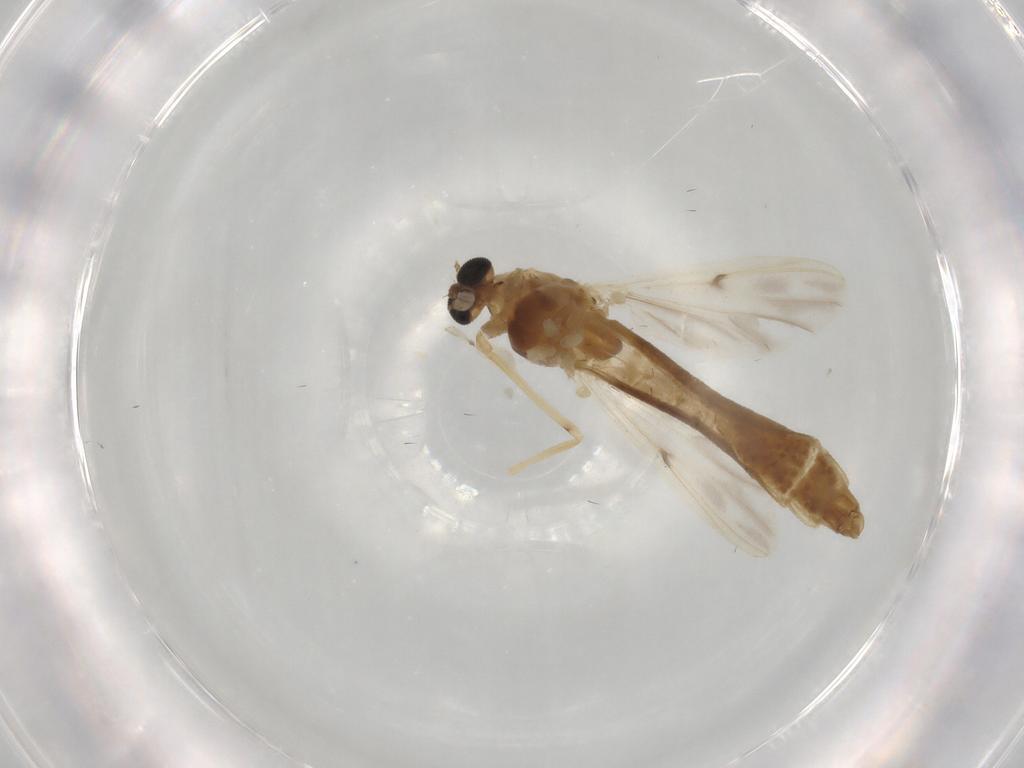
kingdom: Animalia
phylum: Arthropoda
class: Insecta
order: Diptera
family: Ceratopogonidae
